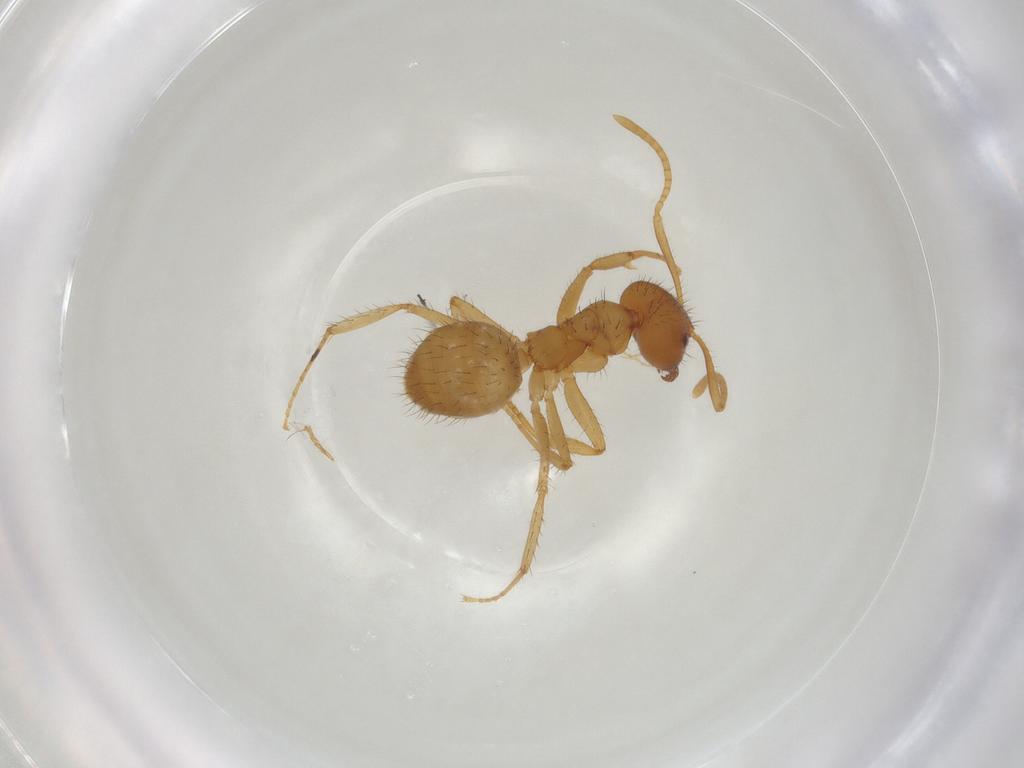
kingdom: Animalia
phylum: Arthropoda
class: Insecta
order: Hymenoptera
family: Formicidae
